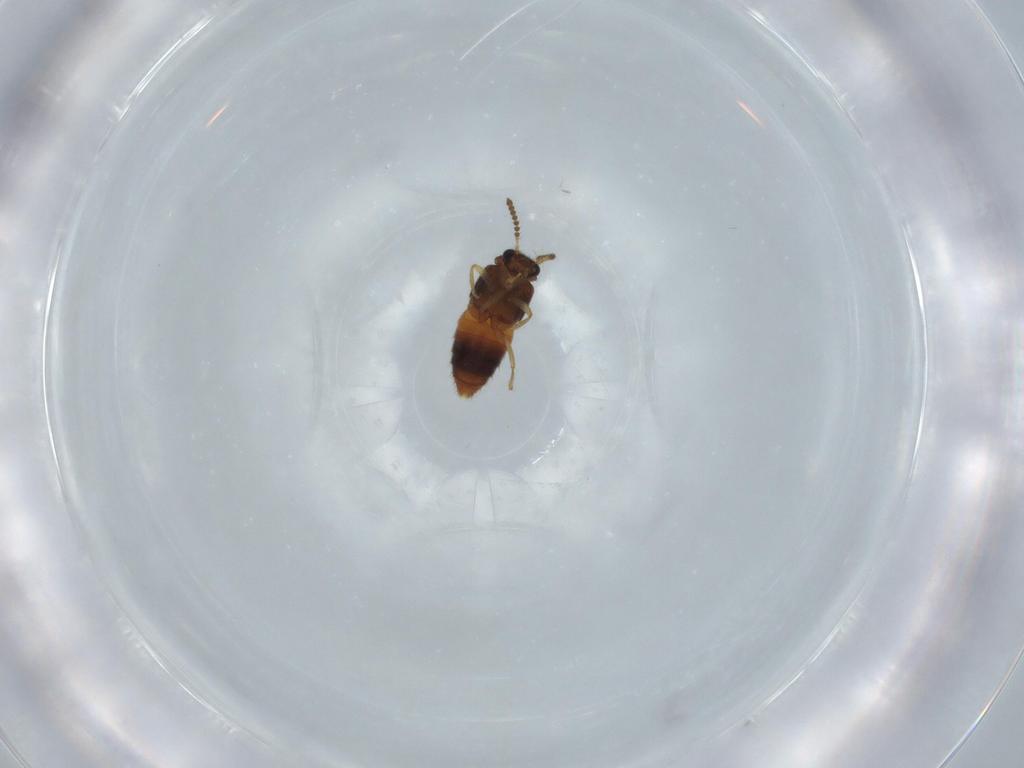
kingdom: Animalia
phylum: Arthropoda
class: Insecta
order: Coleoptera
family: Staphylinidae
